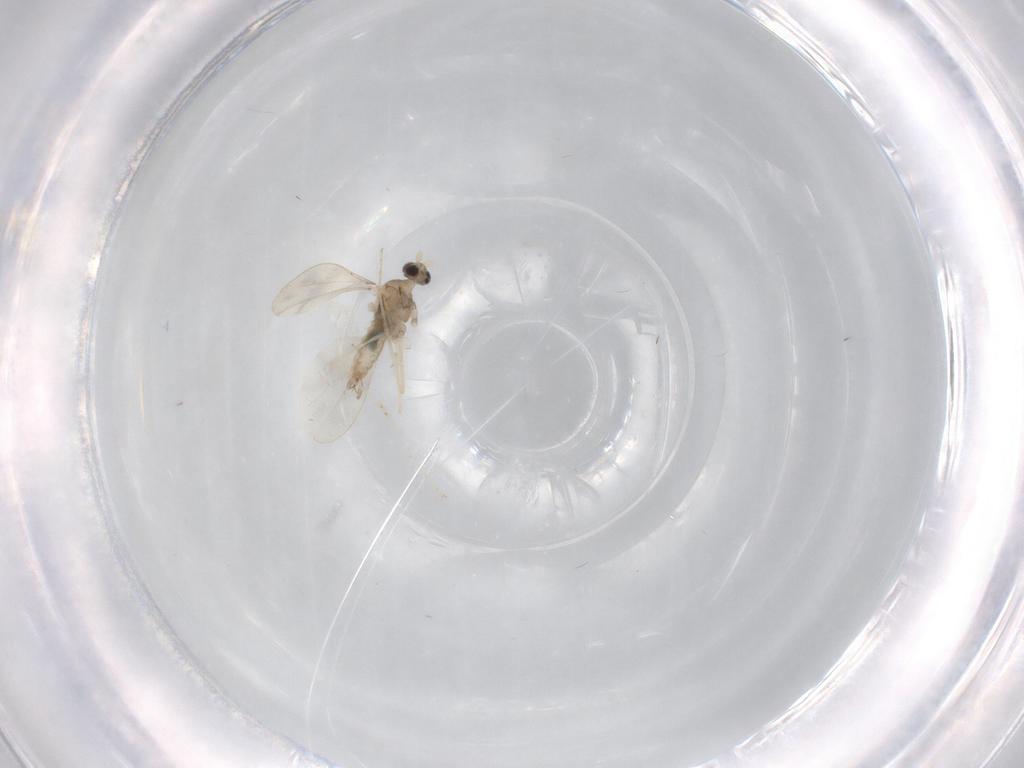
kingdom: Animalia
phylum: Arthropoda
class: Insecta
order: Diptera
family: Cecidomyiidae
